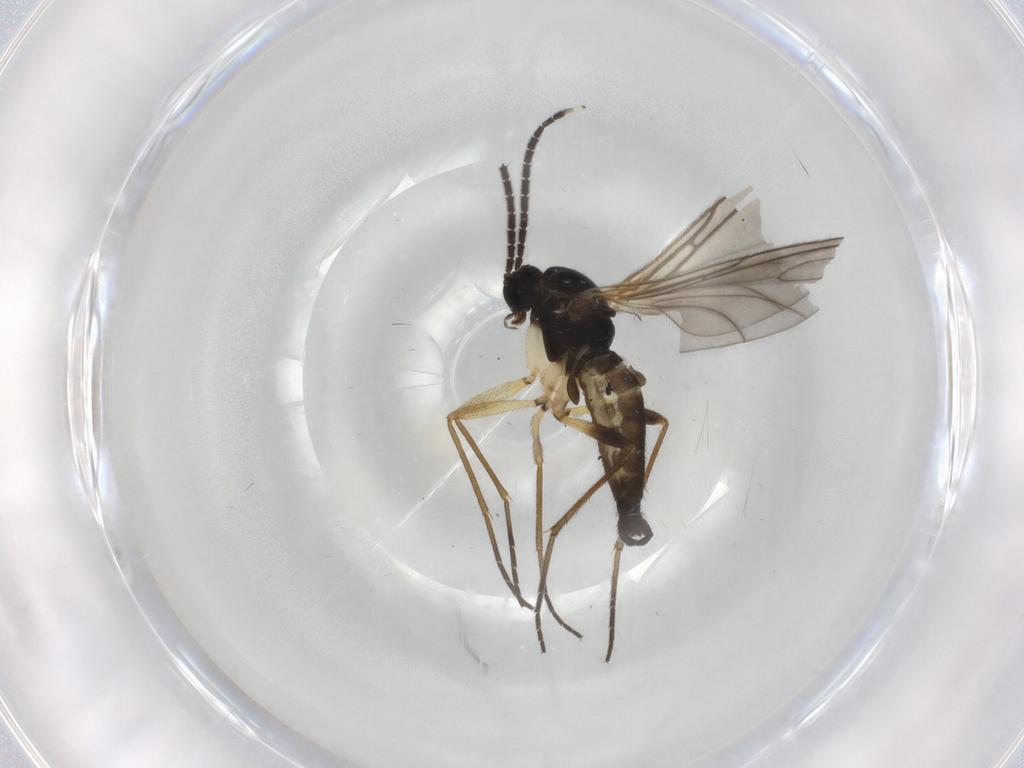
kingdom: Animalia
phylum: Arthropoda
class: Insecta
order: Diptera
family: Sciaridae
